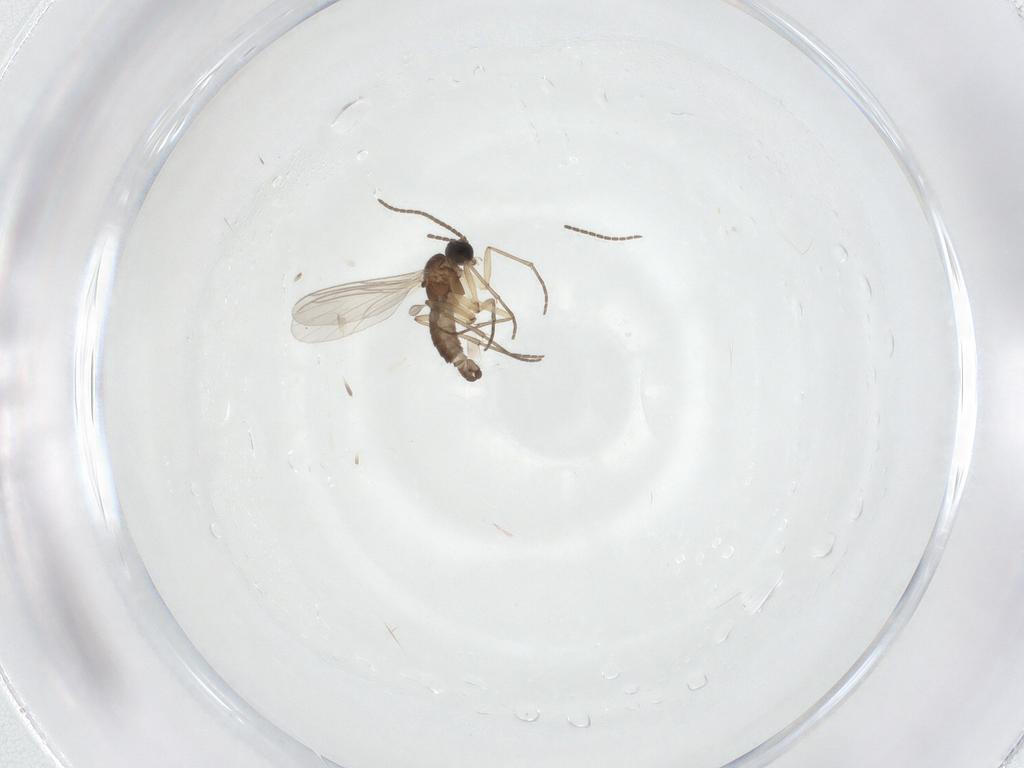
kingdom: Animalia
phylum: Arthropoda
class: Insecta
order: Diptera
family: Sciaridae
